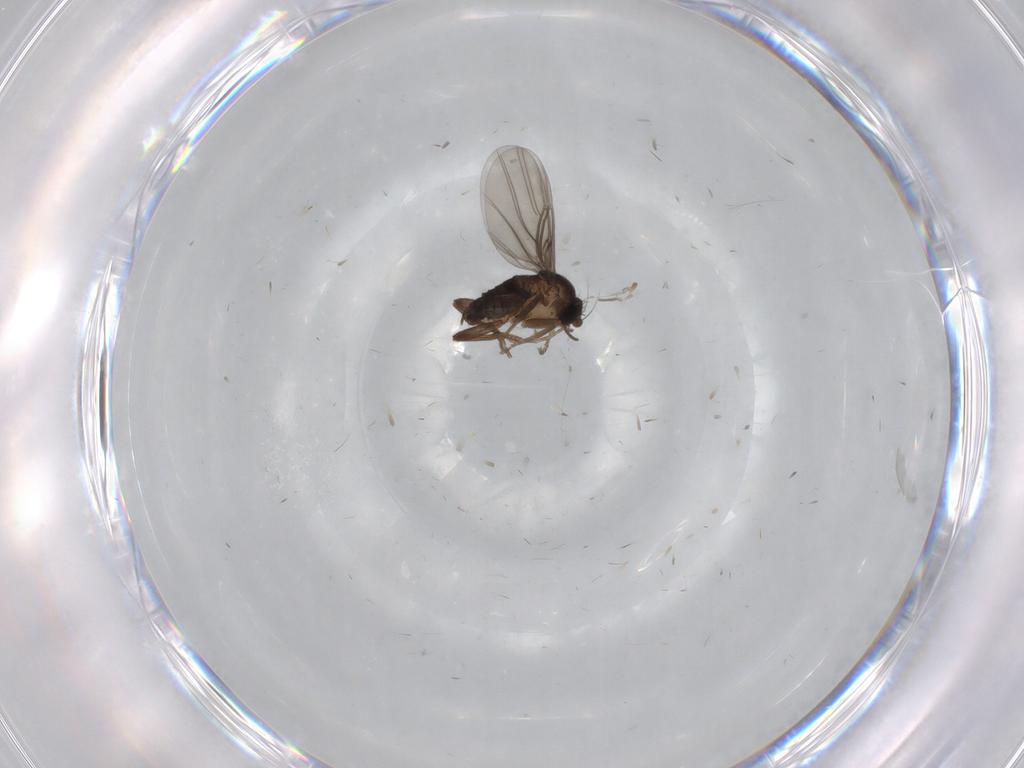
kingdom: Animalia
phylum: Arthropoda
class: Insecta
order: Diptera
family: Phoridae
